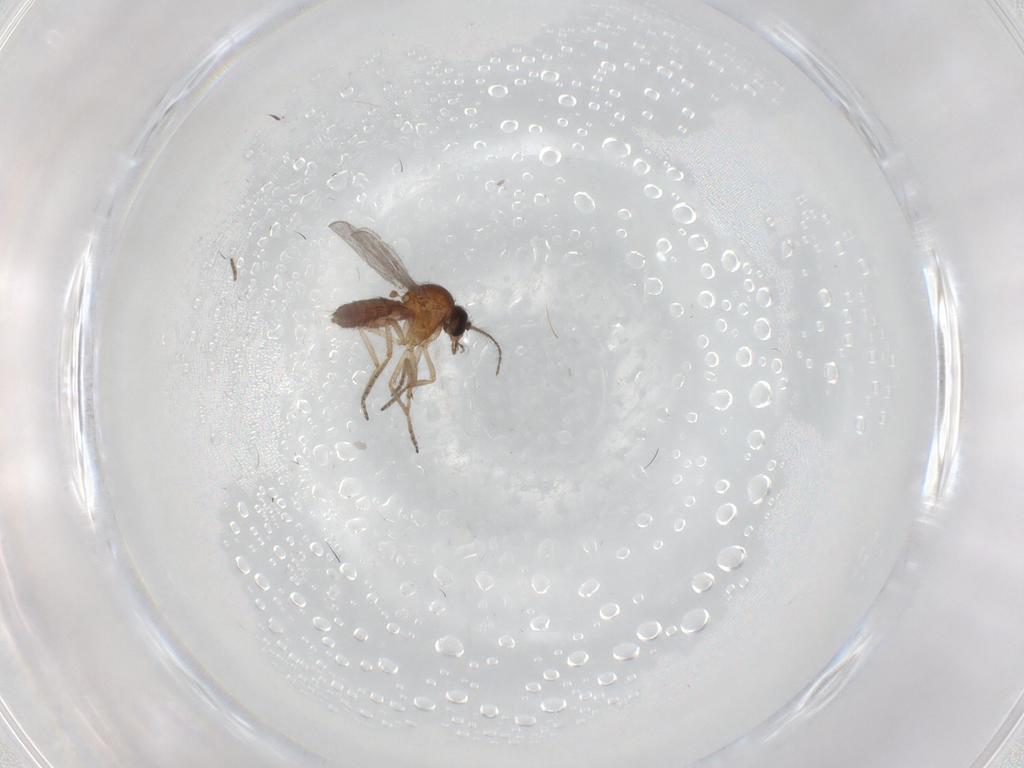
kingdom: Animalia
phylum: Arthropoda
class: Insecta
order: Diptera
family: Ceratopogonidae
